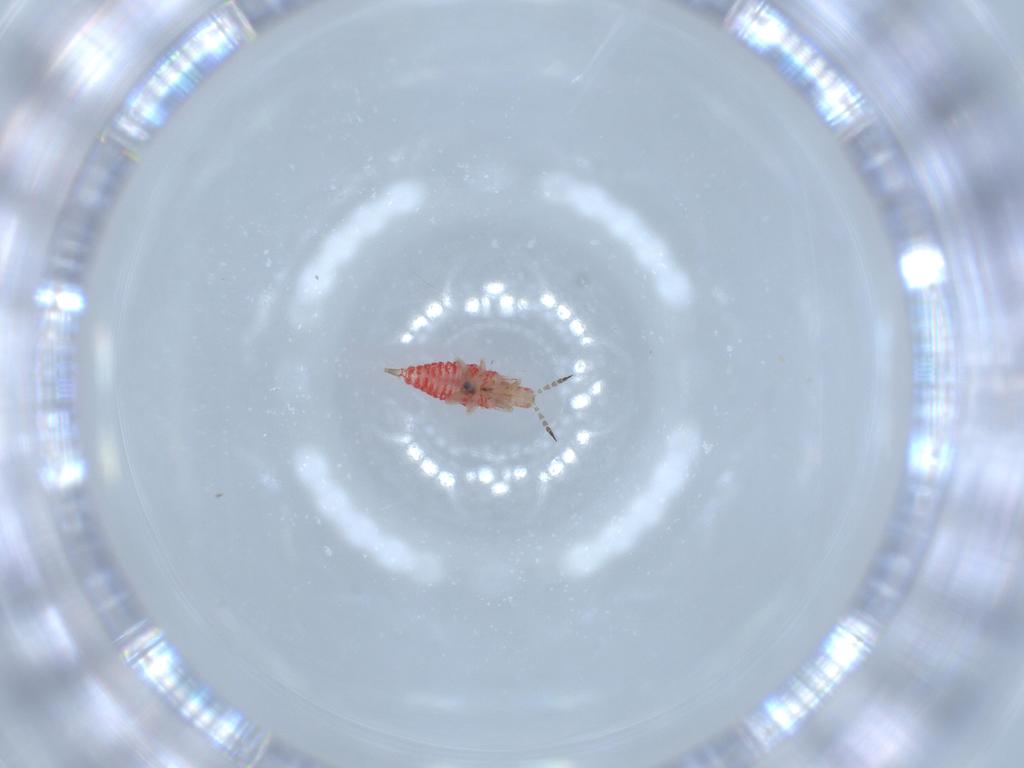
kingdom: Animalia
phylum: Arthropoda
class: Insecta
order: Thysanoptera
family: Phlaeothripidae
